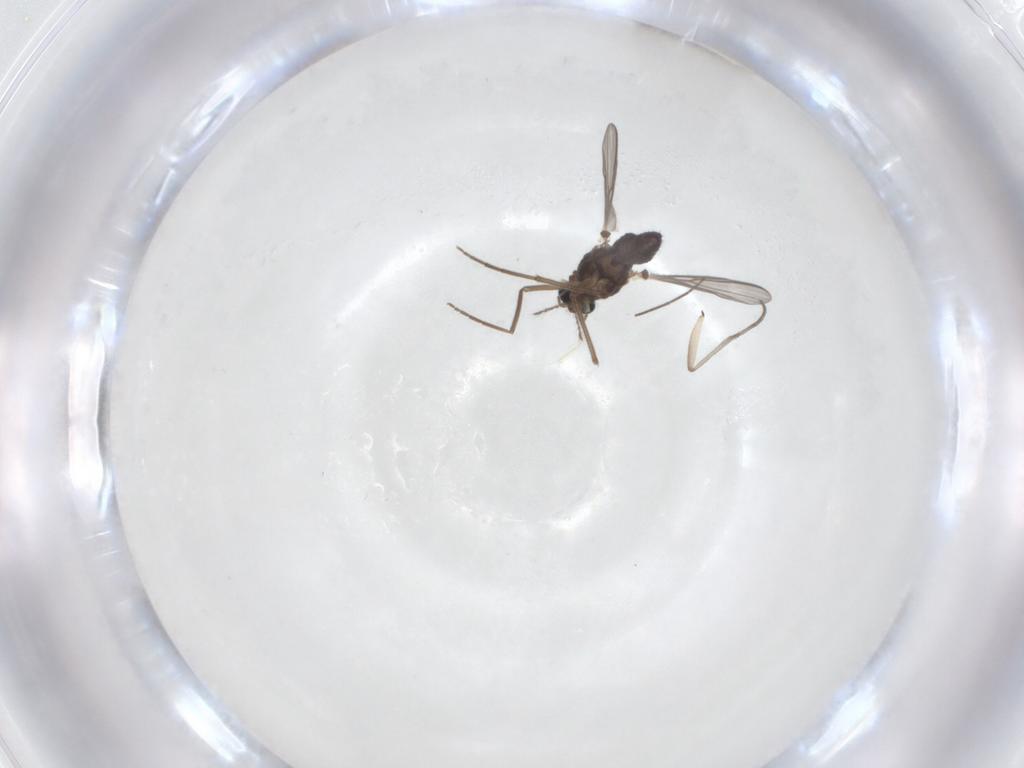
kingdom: Animalia
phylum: Arthropoda
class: Insecta
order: Diptera
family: Chironomidae
